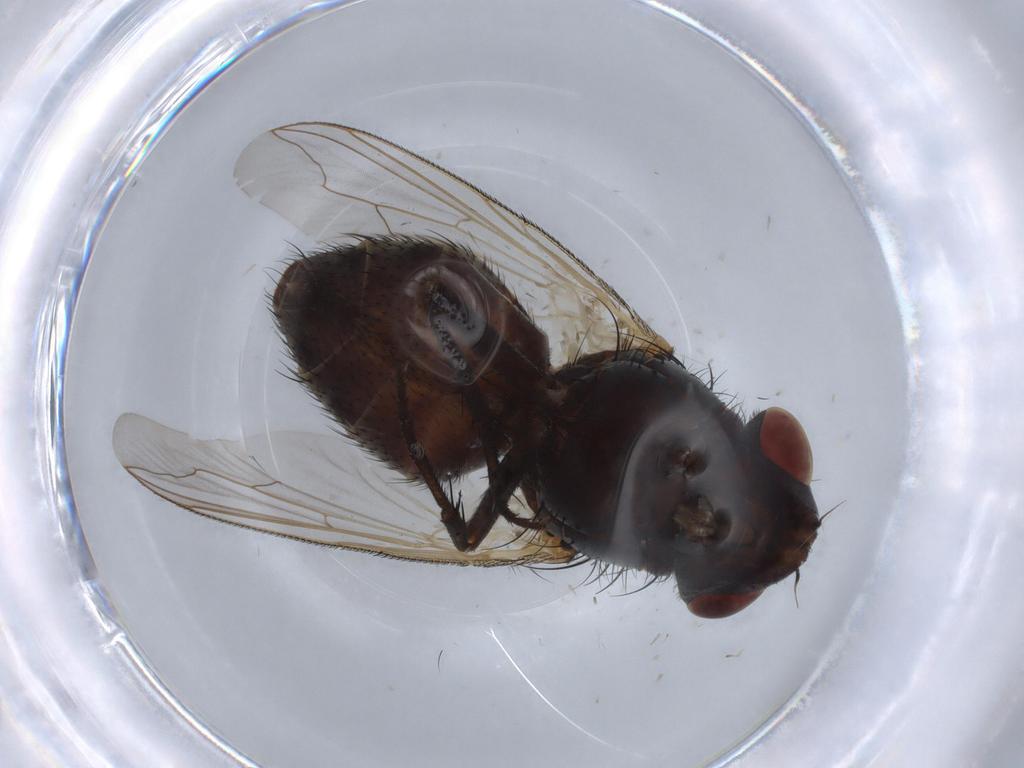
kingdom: Animalia
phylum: Arthropoda
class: Insecta
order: Diptera
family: Sarcophagidae
